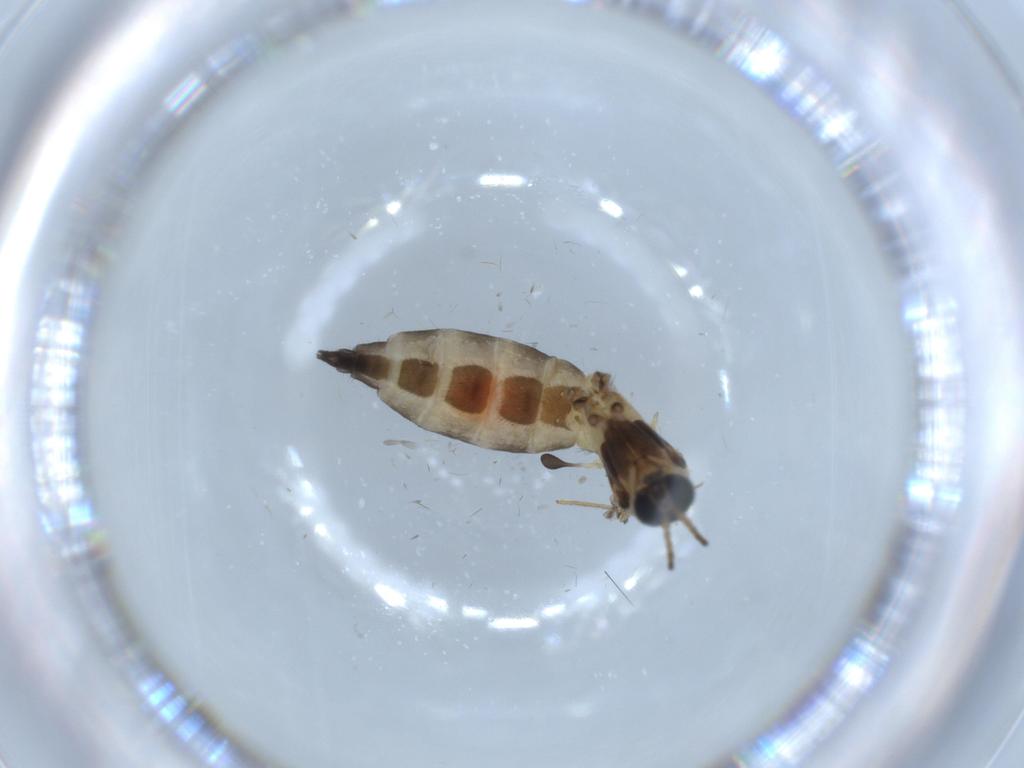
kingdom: Animalia
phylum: Arthropoda
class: Insecta
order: Diptera
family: Sciaridae
